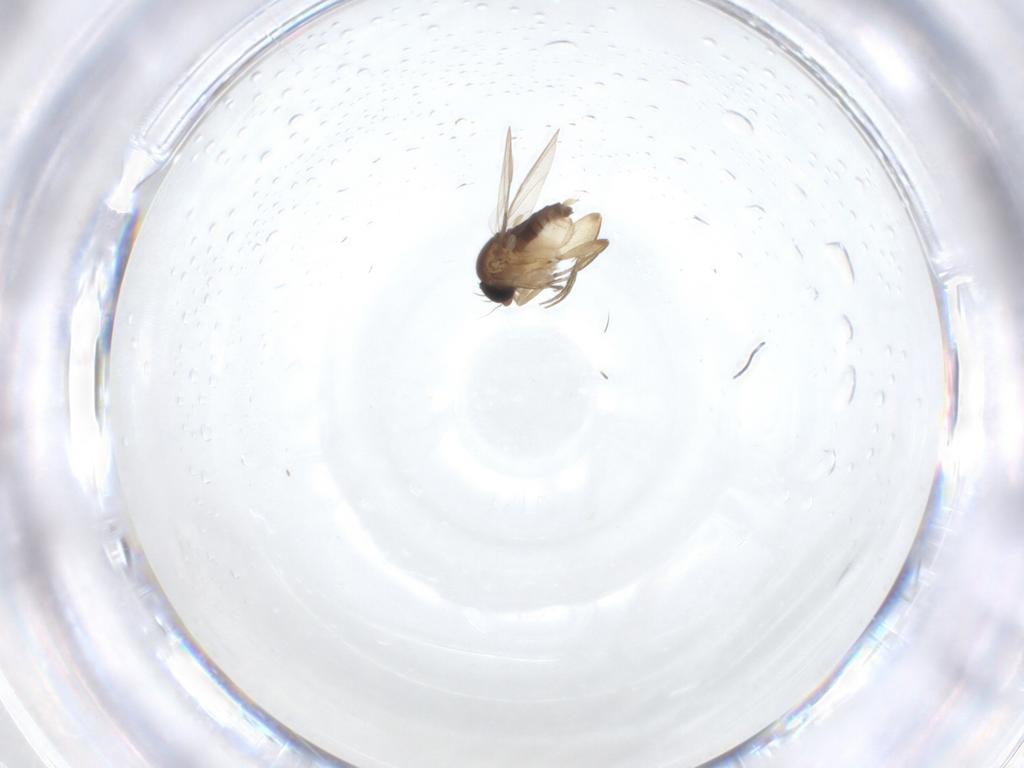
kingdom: Animalia
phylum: Arthropoda
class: Insecta
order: Diptera
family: Phoridae
